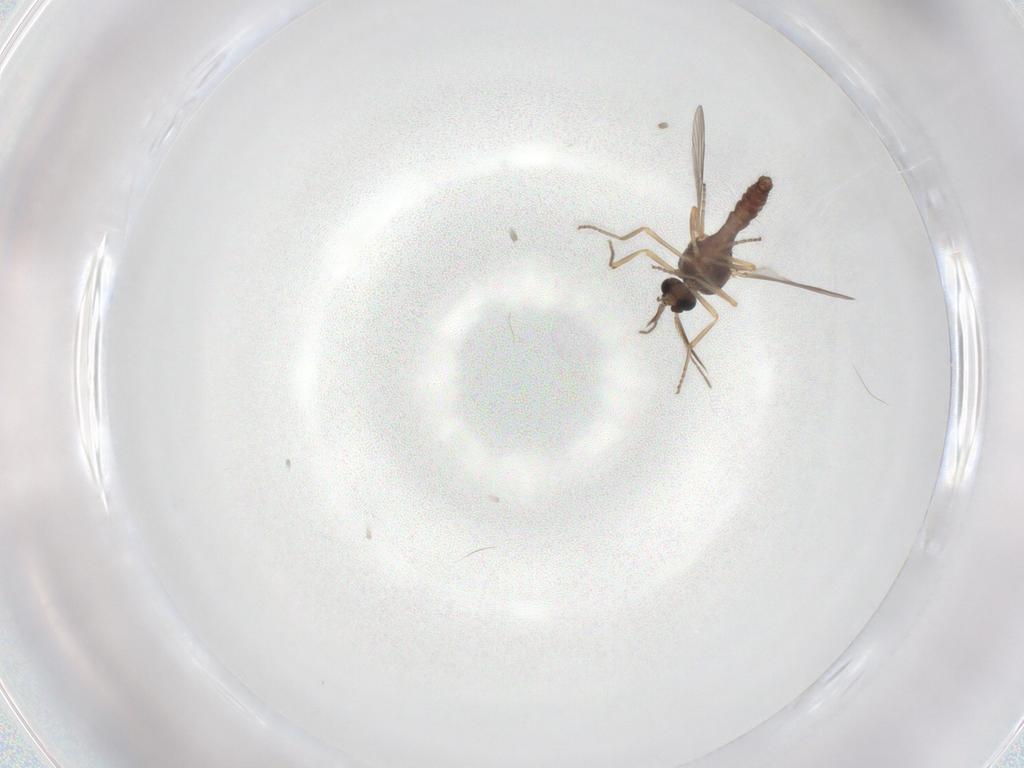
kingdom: Animalia
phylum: Arthropoda
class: Insecta
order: Diptera
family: Ceratopogonidae
